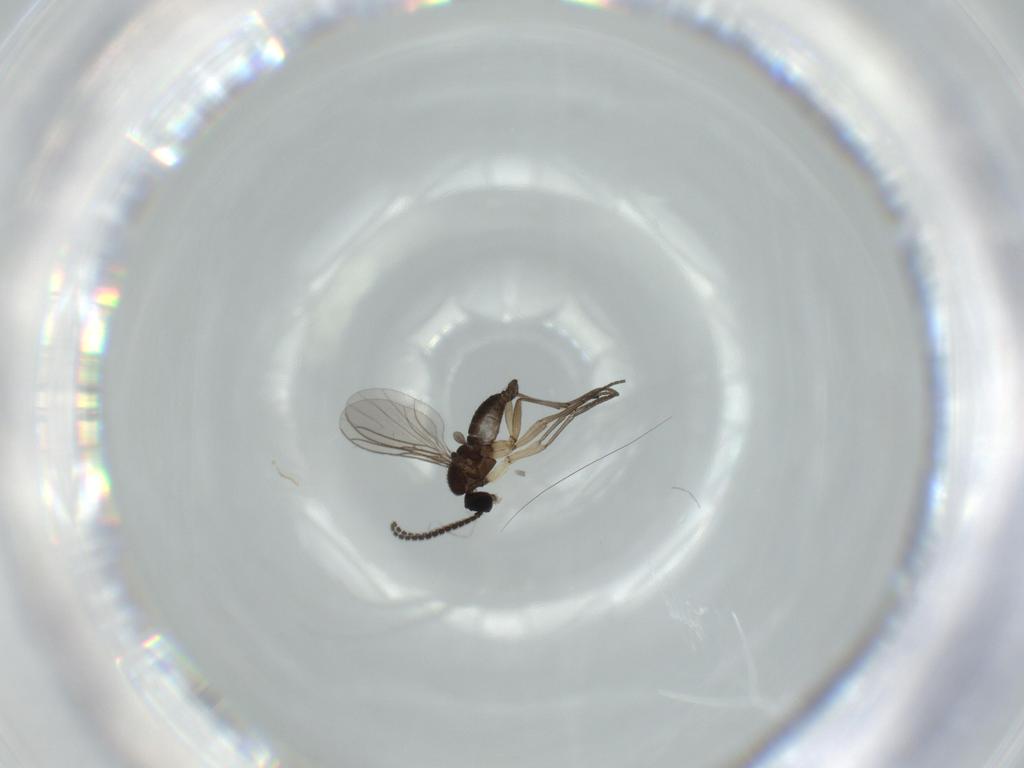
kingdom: Animalia
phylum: Arthropoda
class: Insecta
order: Diptera
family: Sciaridae
